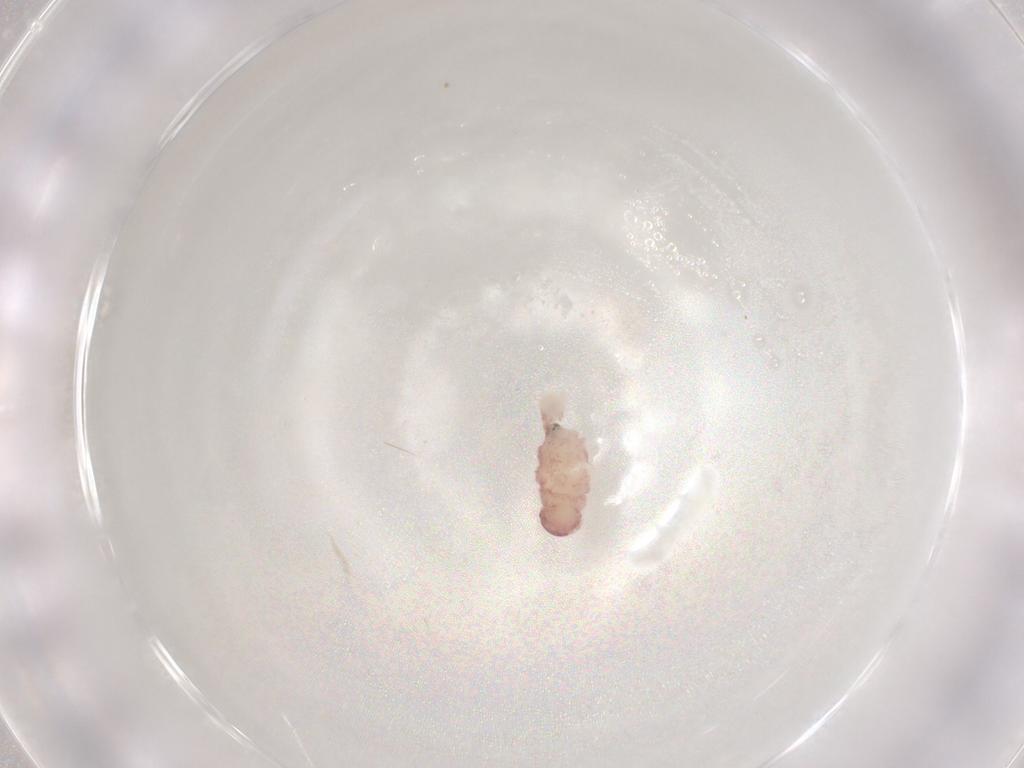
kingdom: Animalia
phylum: Arthropoda
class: Diplopoda
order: Polyxenida
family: Polyxenidae
